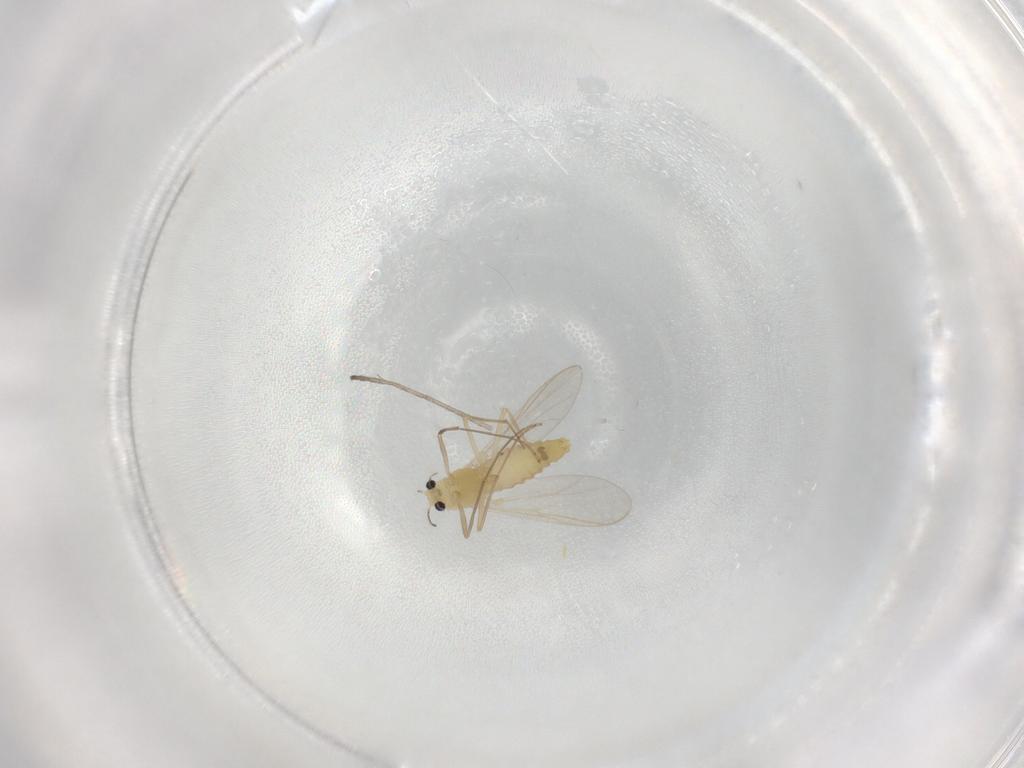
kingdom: Animalia
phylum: Arthropoda
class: Insecta
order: Diptera
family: Chironomidae
